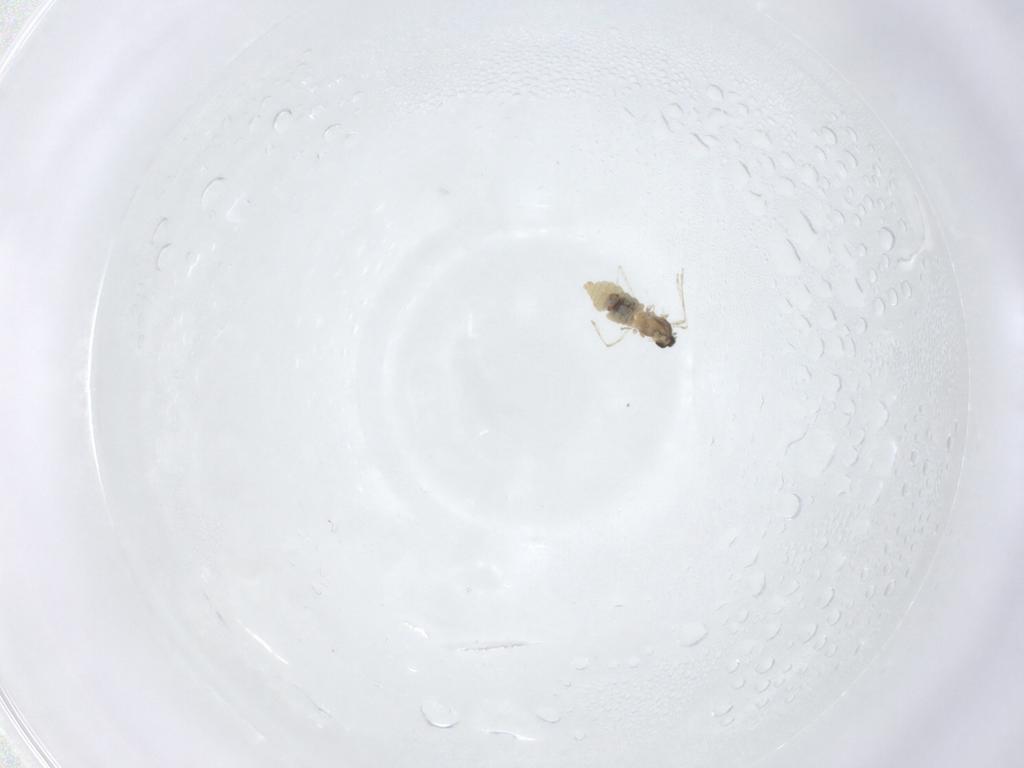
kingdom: Animalia
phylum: Arthropoda
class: Insecta
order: Diptera
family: Cecidomyiidae
